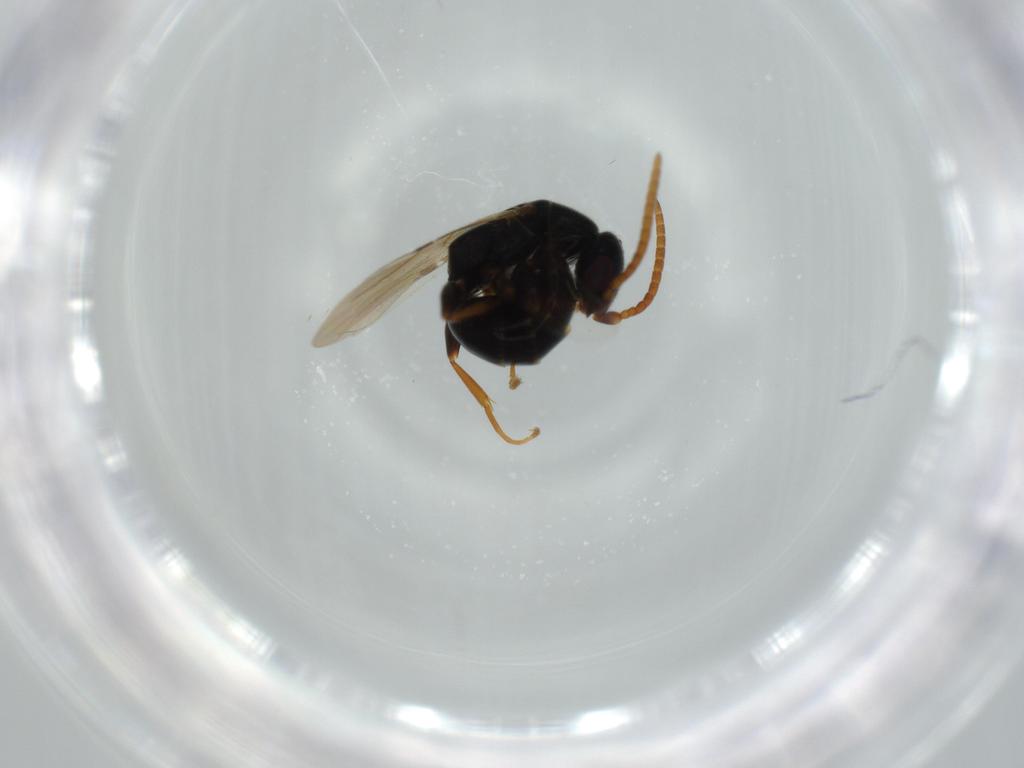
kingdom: Animalia
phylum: Arthropoda
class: Insecta
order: Hymenoptera
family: Bethylidae
